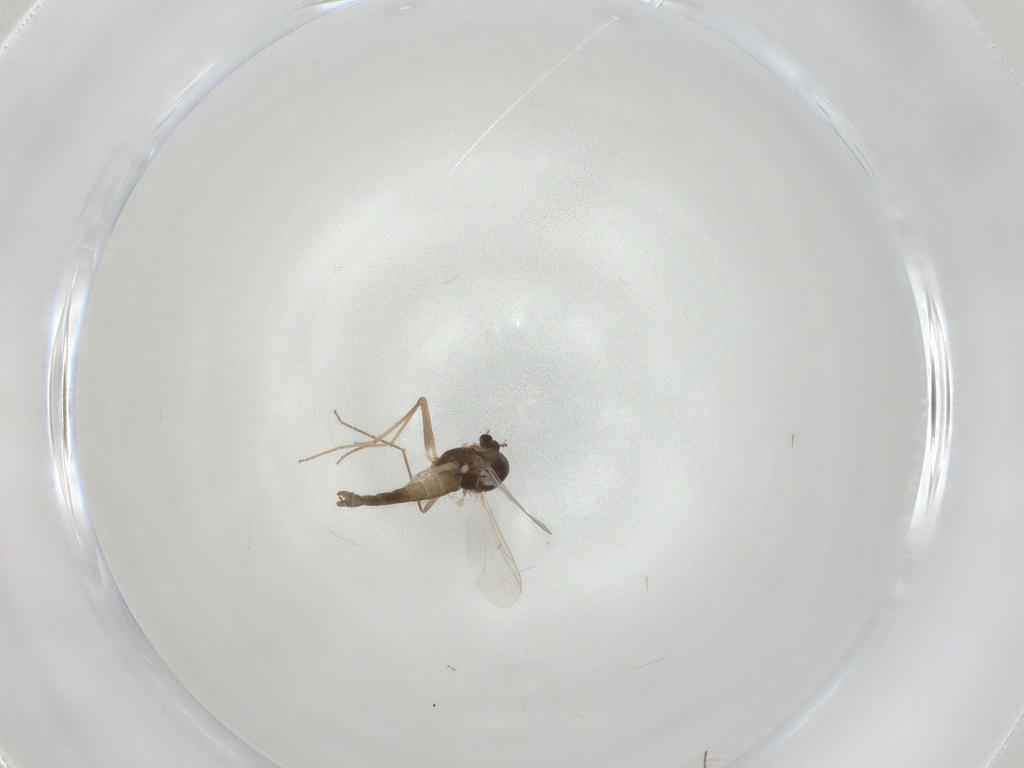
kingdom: Animalia
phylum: Arthropoda
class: Insecta
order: Diptera
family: Chironomidae
